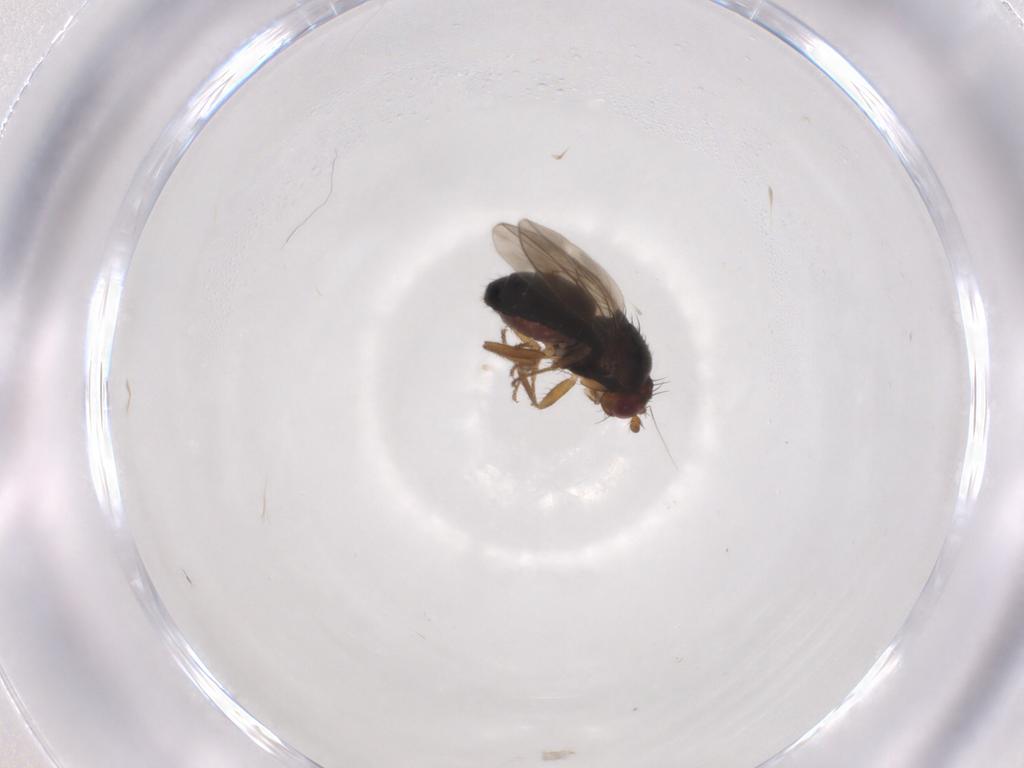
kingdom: Animalia
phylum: Arthropoda
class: Insecta
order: Diptera
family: Sphaeroceridae
